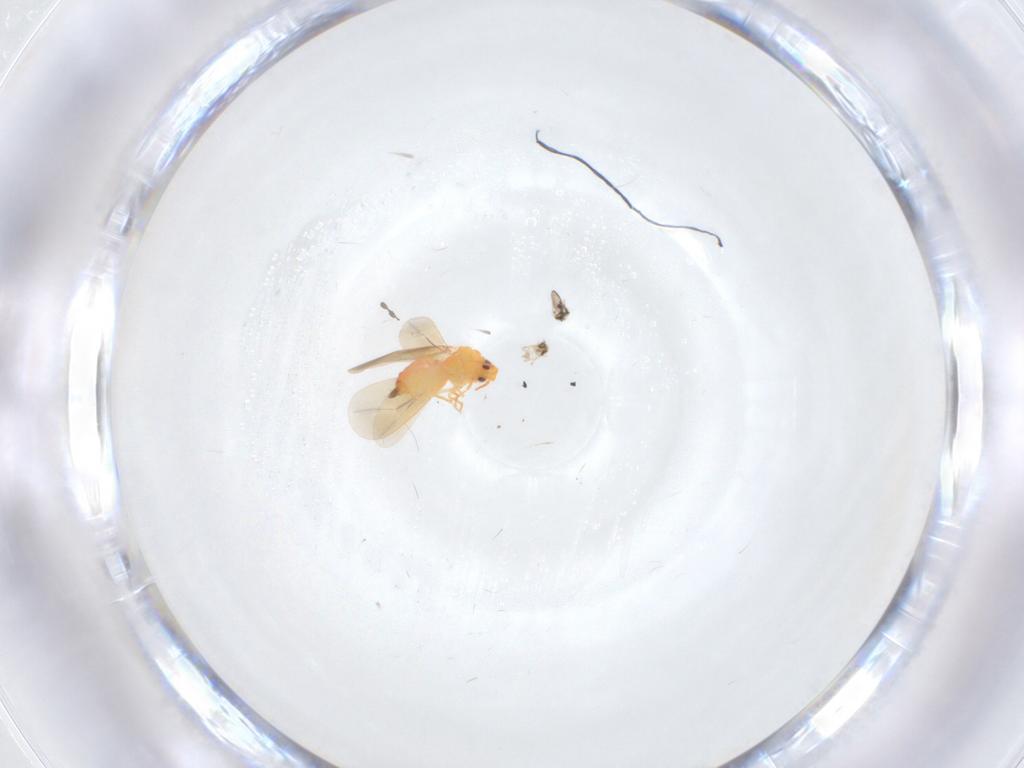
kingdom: Animalia
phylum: Arthropoda
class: Insecta
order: Hemiptera
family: Aleyrodidae
